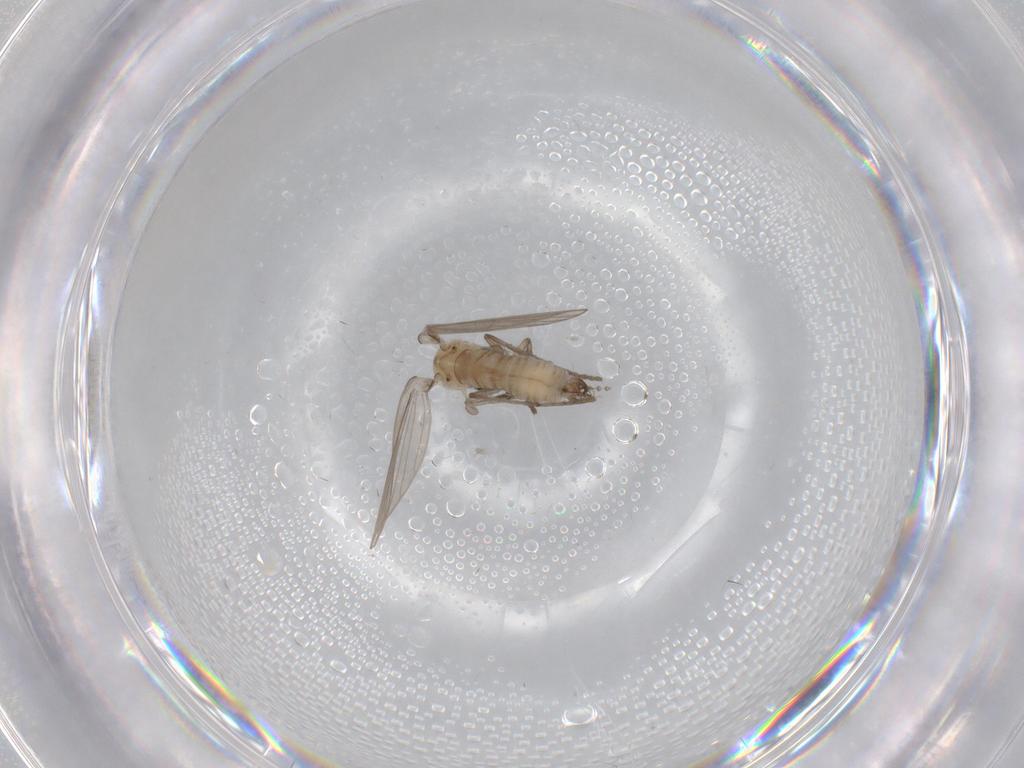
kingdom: Animalia
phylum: Arthropoda
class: Insecta
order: Diptera
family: Psychodidae
